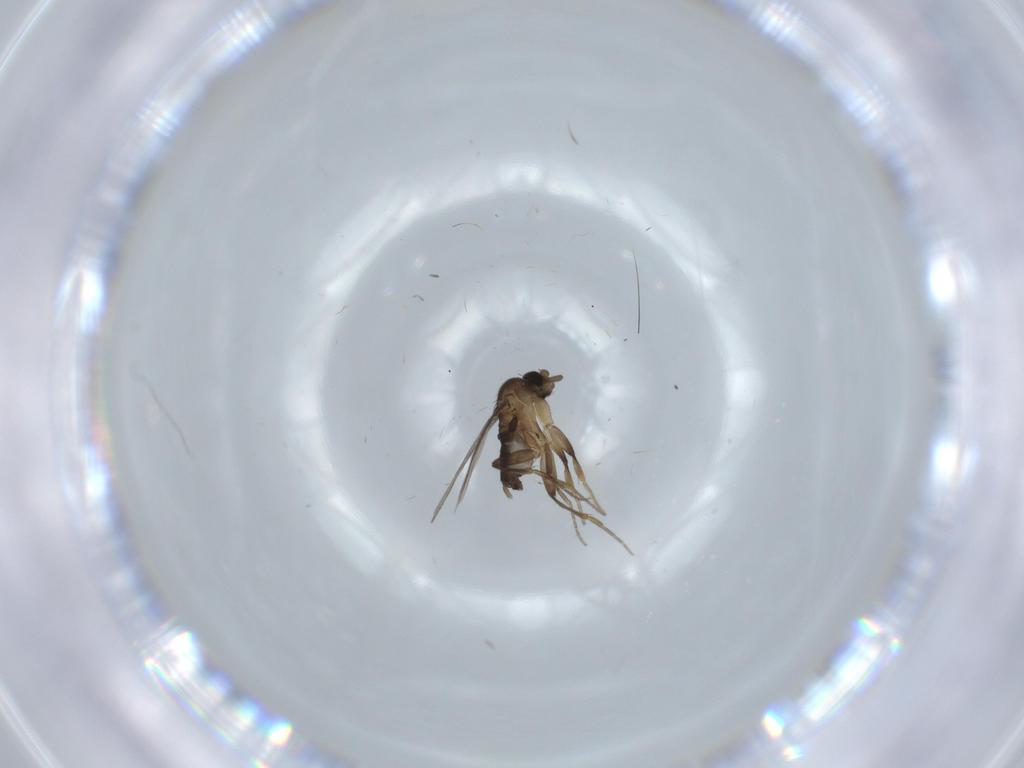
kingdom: Animalia
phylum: Arthropoda
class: Insecta
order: Diptera
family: Phoridae
